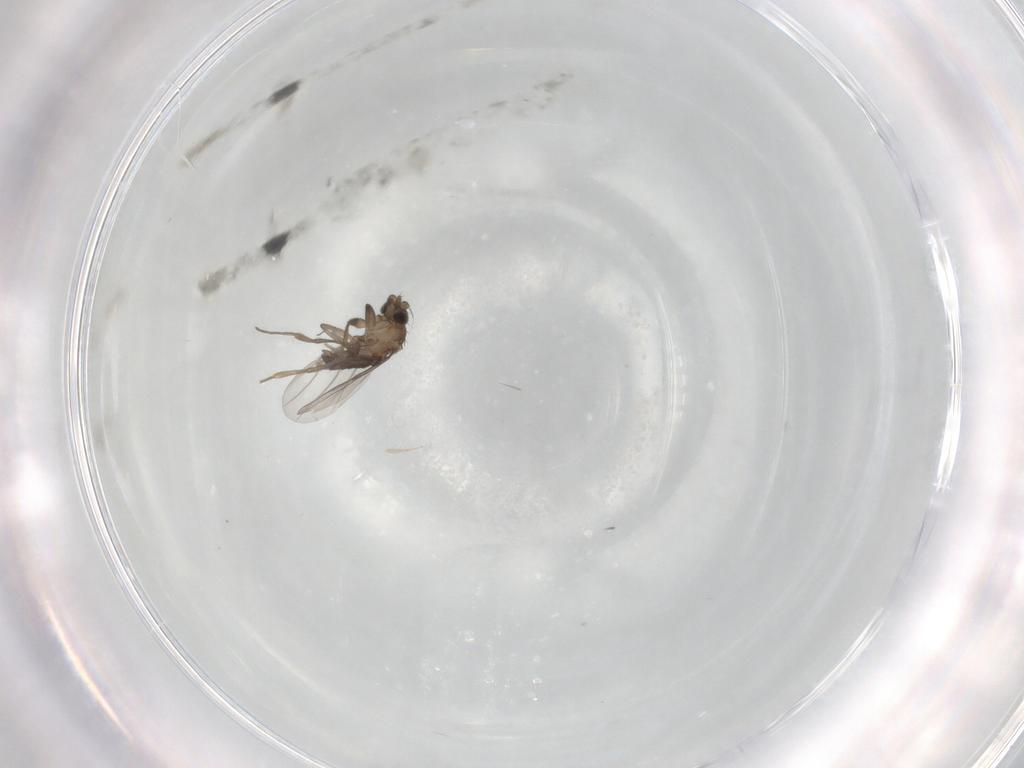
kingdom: Animalia
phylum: Arthropoda
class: Insecta
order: Diptera
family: Phoridae
